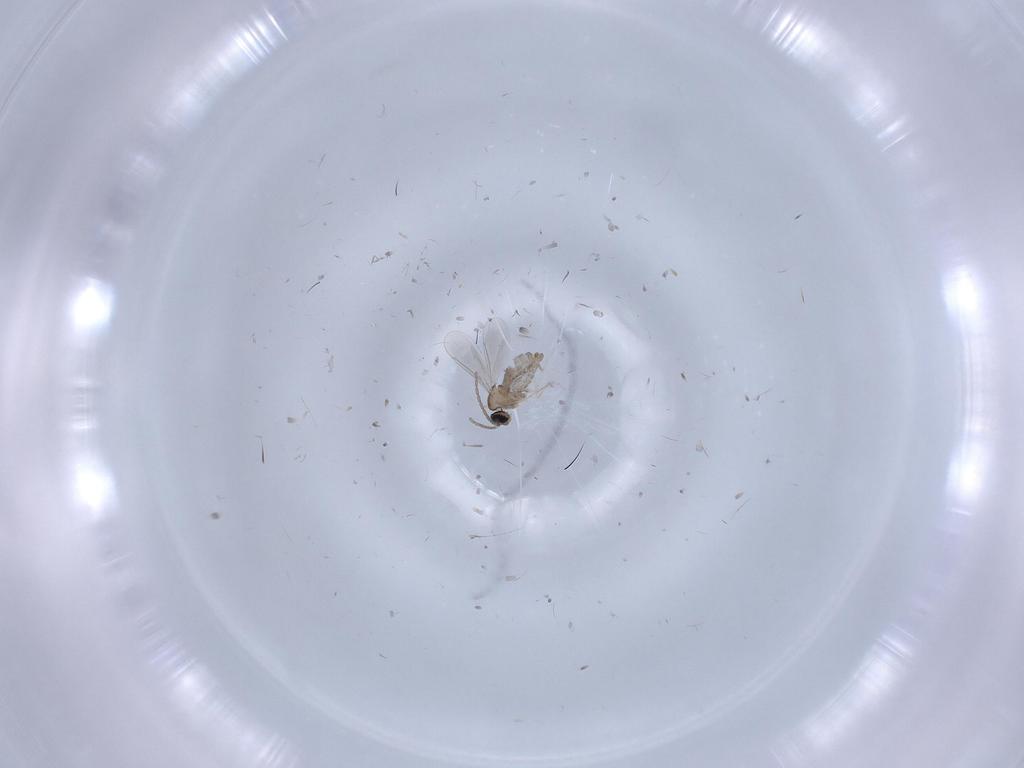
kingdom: Animalia
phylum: Arthropoda
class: Insecta
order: Diptera
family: Cecidomyiidae
